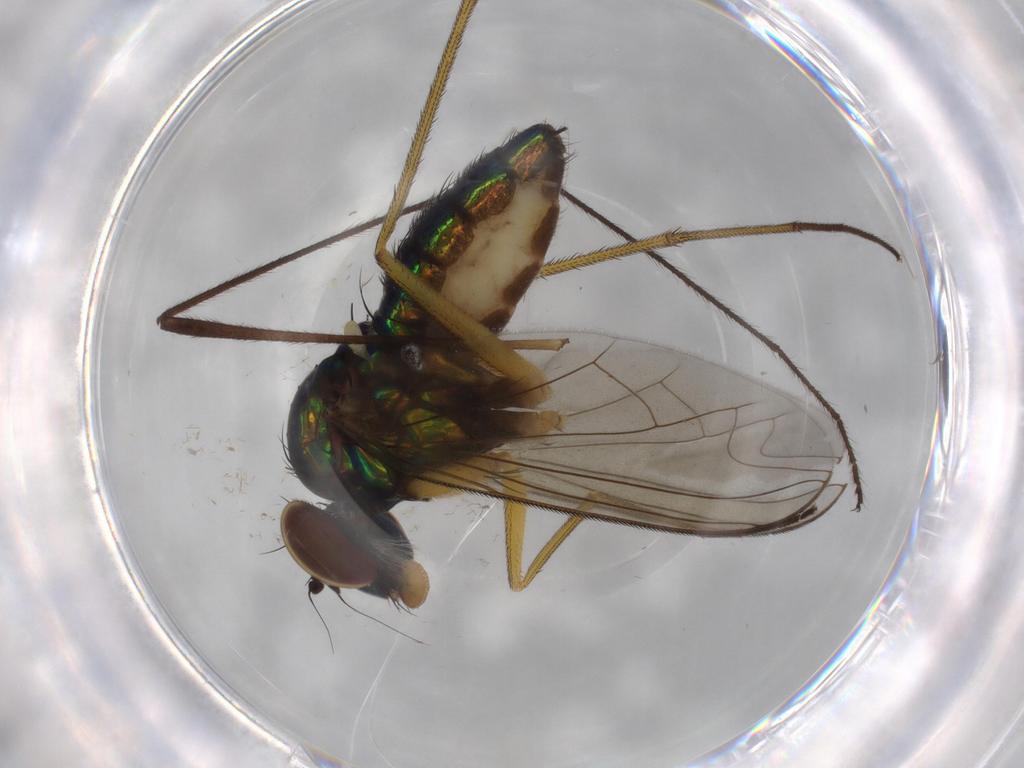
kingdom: Animalia
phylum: Arthropoda
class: Insecta
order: Diptera
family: Dolichopodidae
